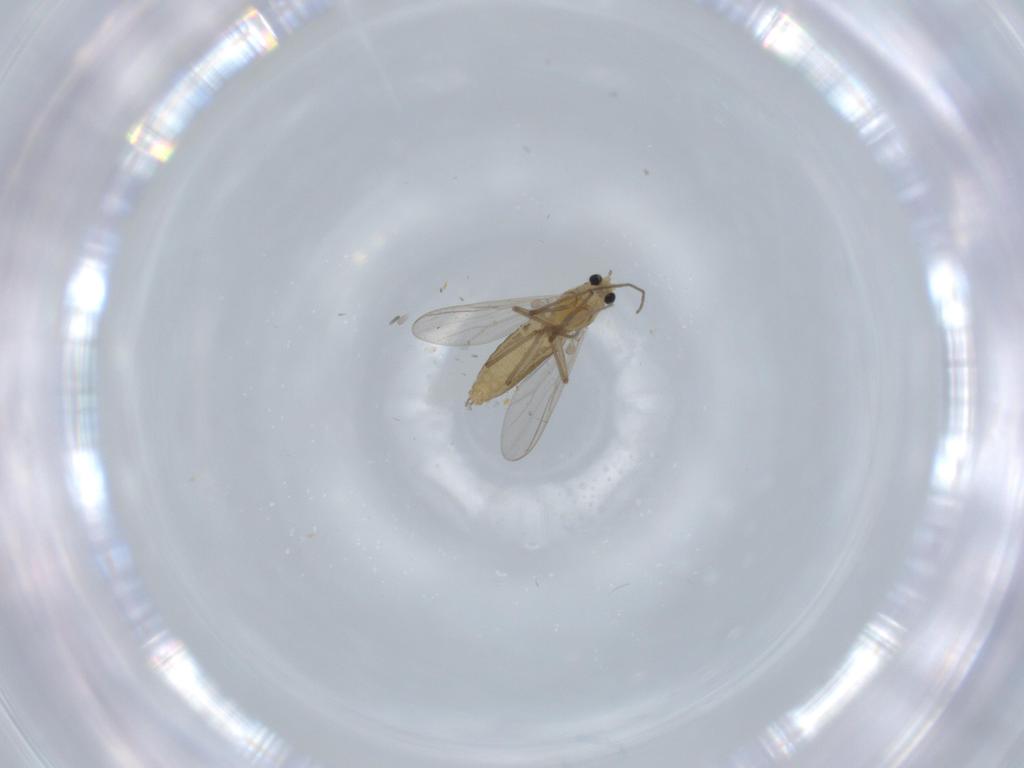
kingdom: Animalia
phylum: Arthropoda
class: Insecta
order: Diptera
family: Chironomidae
